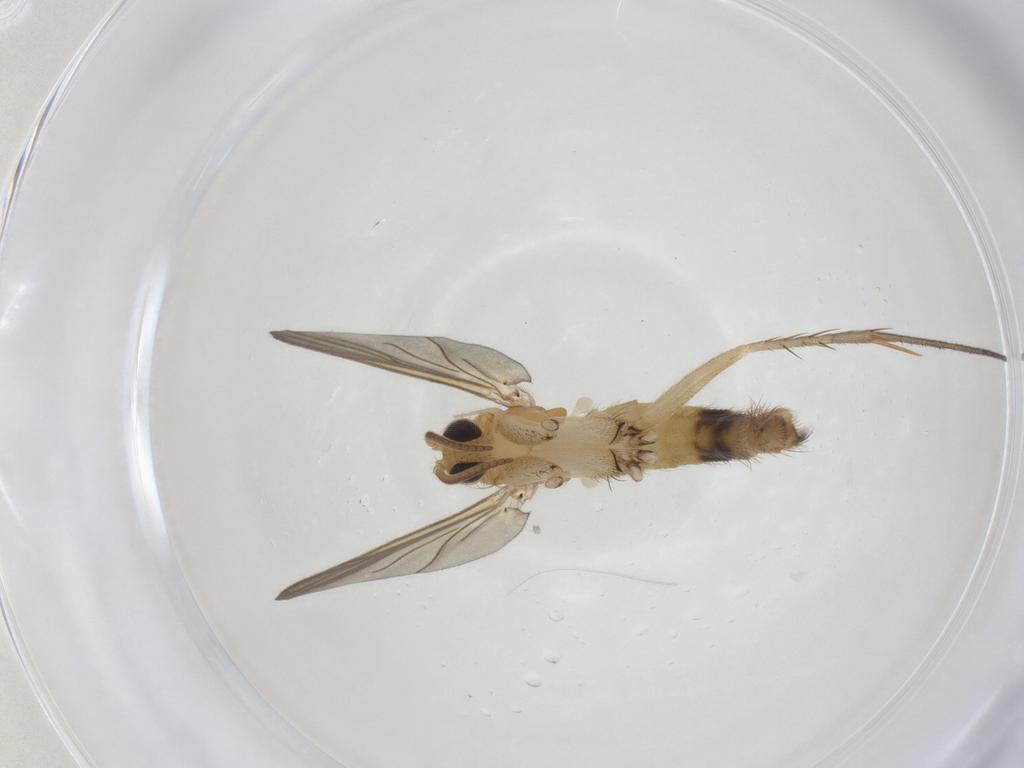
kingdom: Animalia
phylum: Arthropoda
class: Insecta
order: Diptera
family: Mycetophilidae
